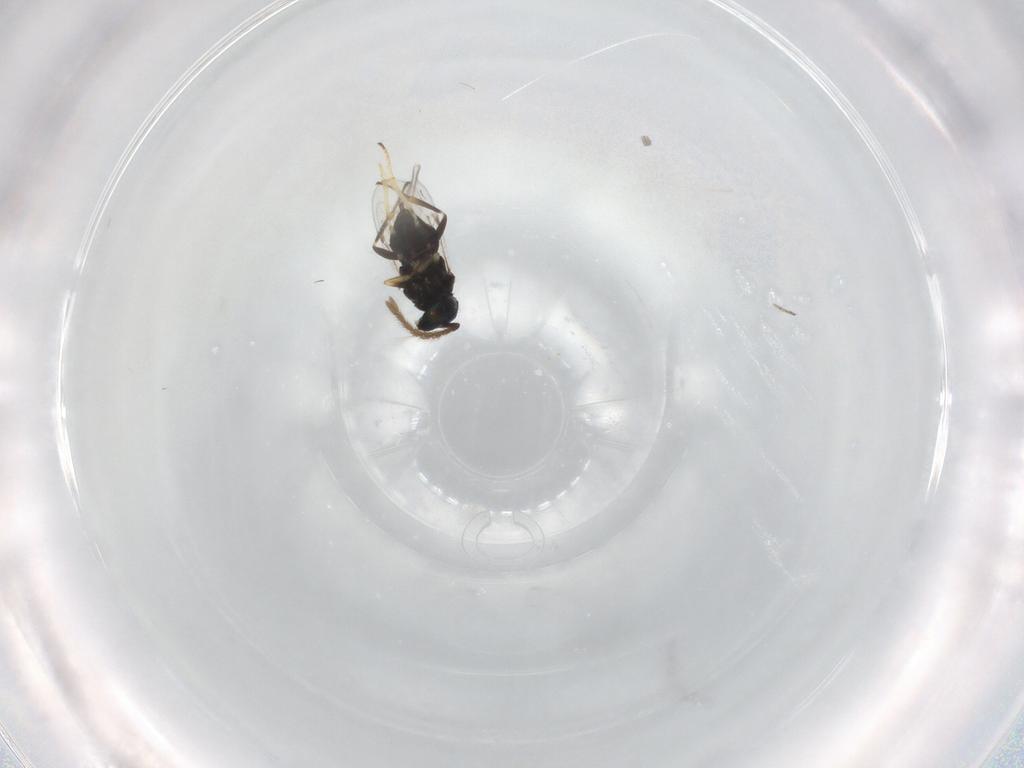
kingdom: Animalia
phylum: Arthropoda
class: Insecta
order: Hymenoptera
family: Encyrtidae
